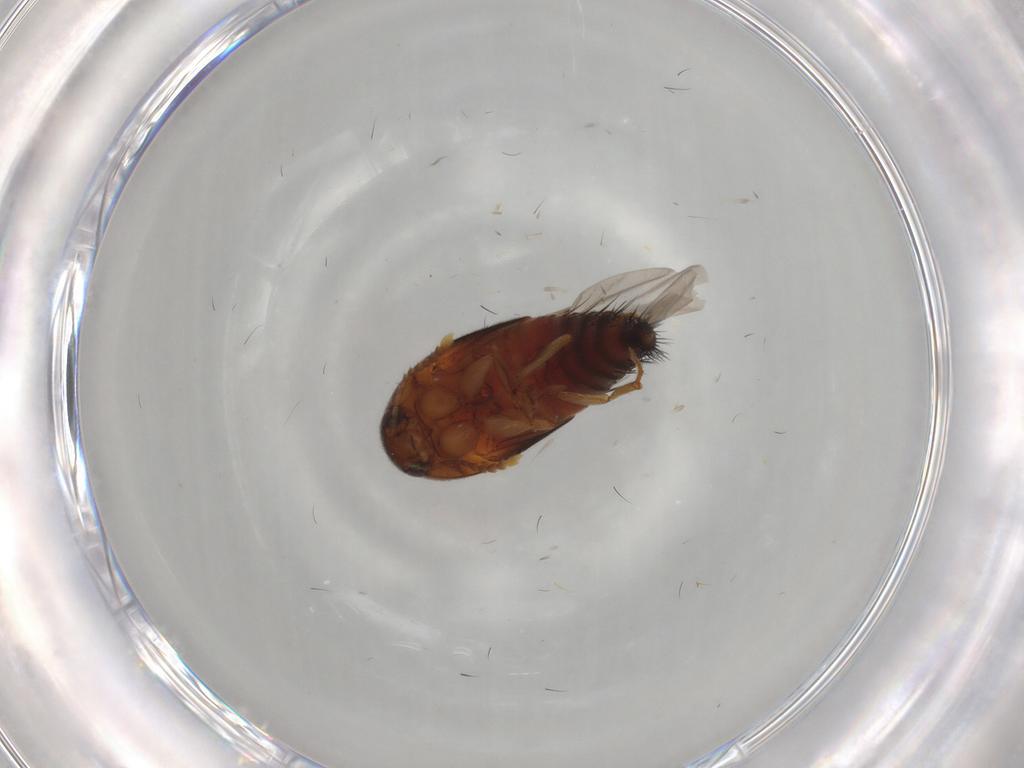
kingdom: Animalia
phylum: Arthropoda
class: Insecta
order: Coleoptera
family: Staphylinidae
